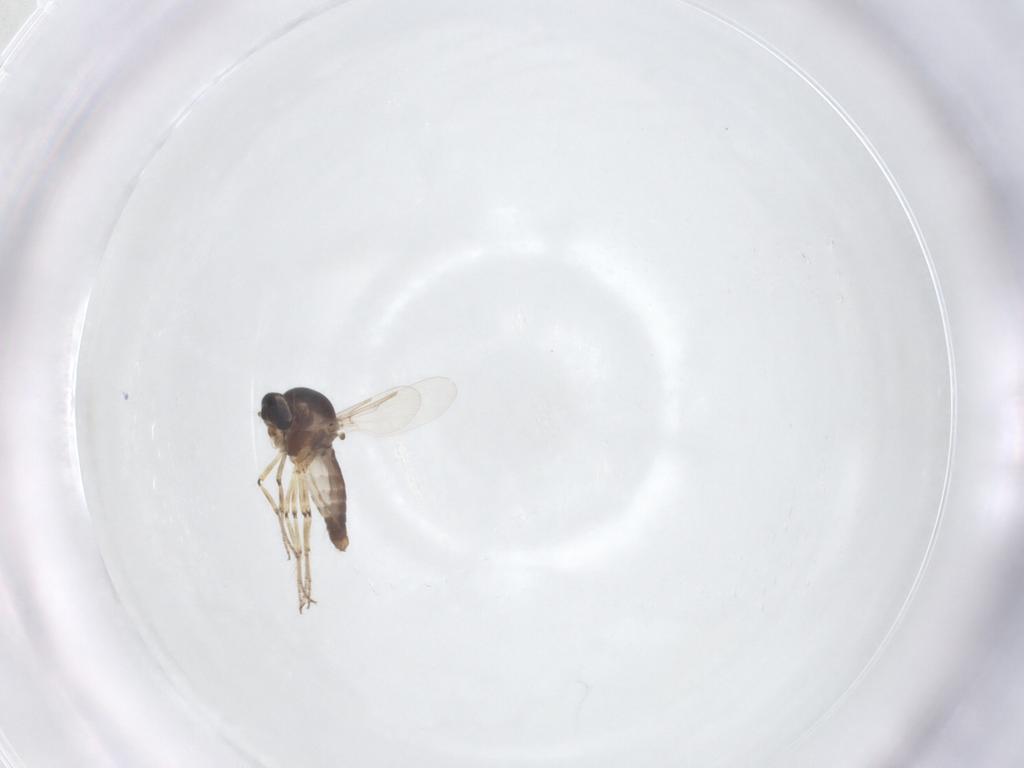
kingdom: Animalia
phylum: Arthropoda
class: Insecta
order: Diptera
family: Ceratopogonidae
